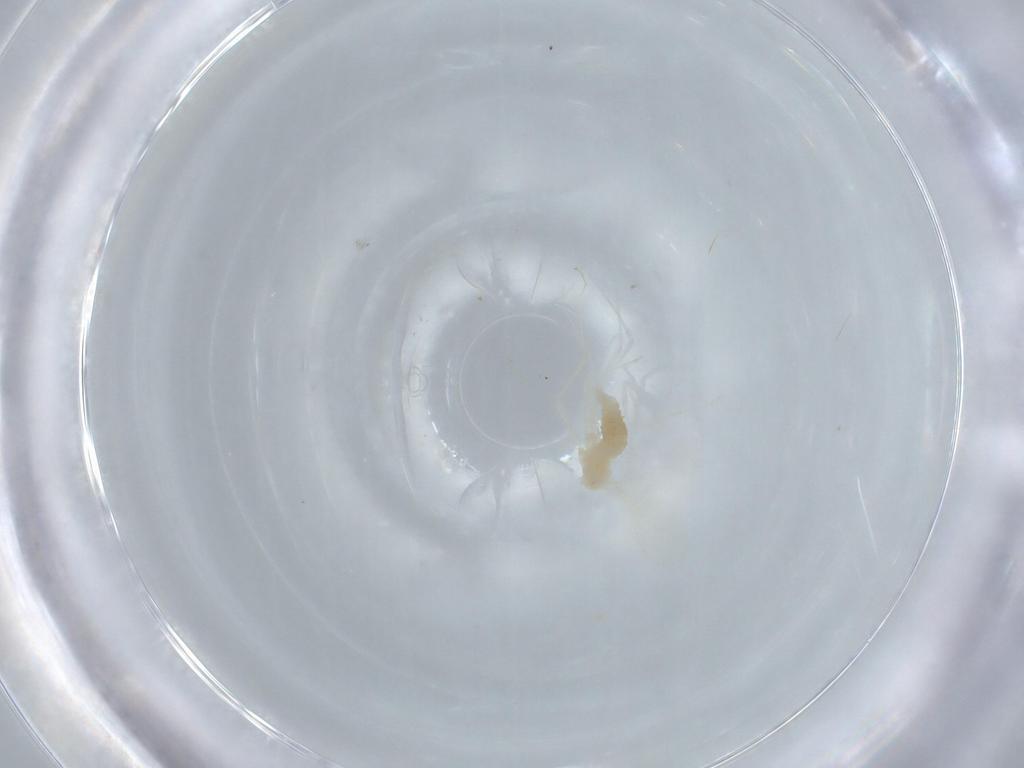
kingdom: Animalia
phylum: Arthropoda
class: Insecta
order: Diptera
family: Cecidomyiidae
